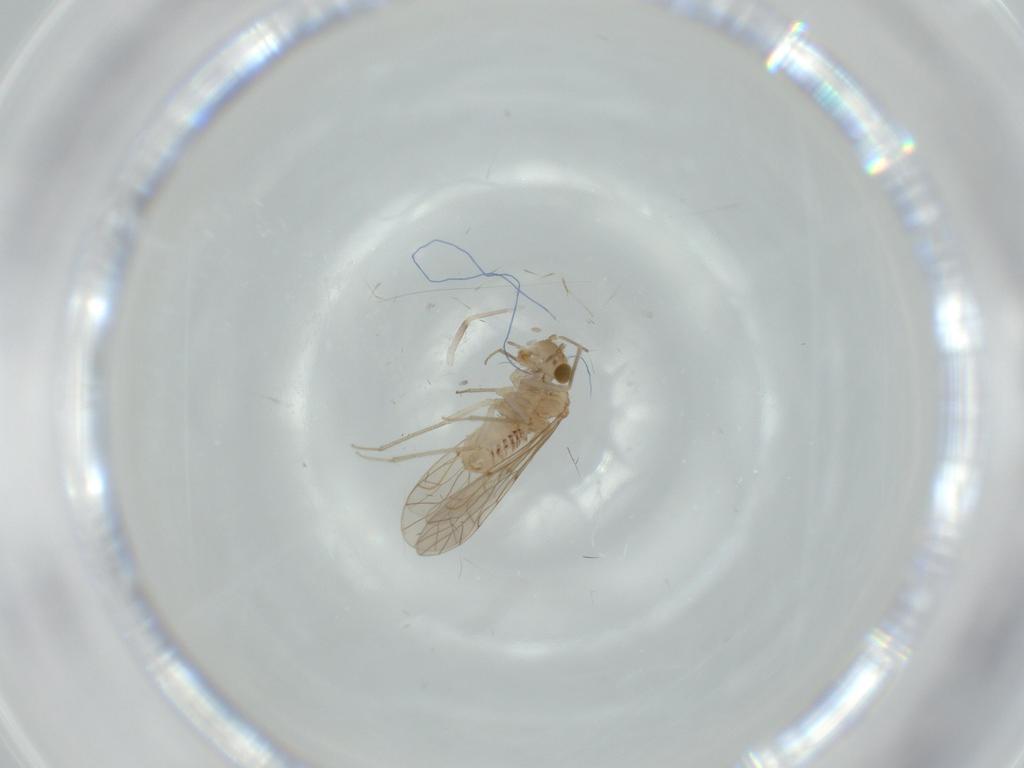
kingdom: Animalia
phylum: Arthropoda
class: Insecta
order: Psocodea
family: Lachesillidae
